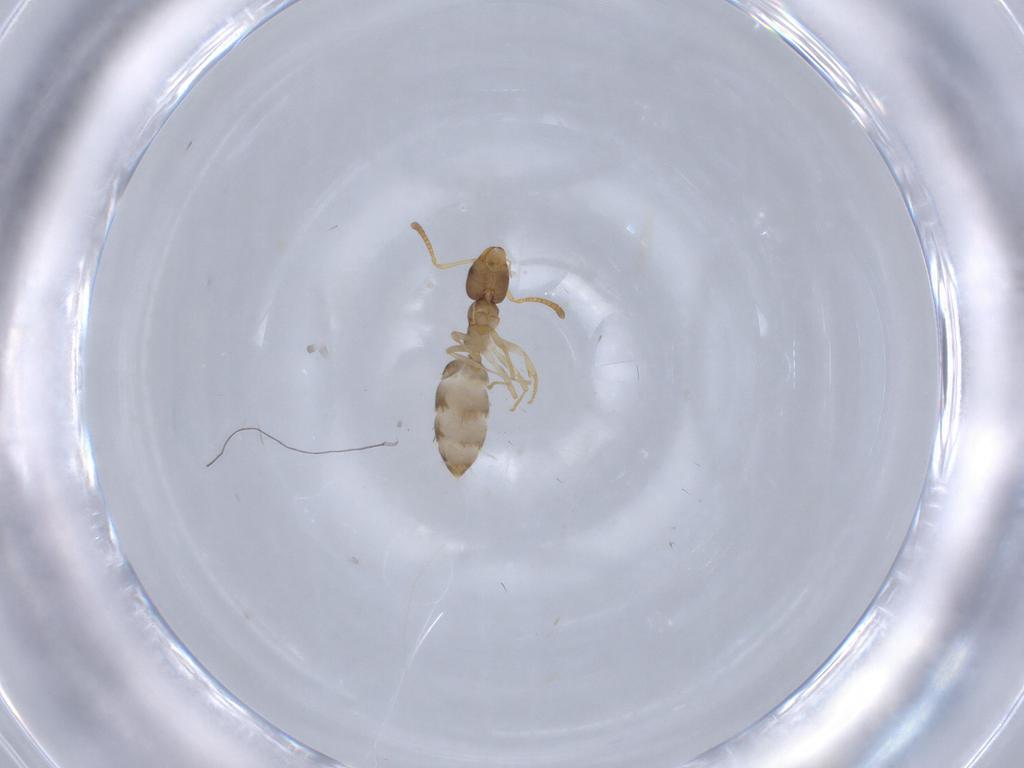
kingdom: Animalia
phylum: Arthropoda
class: Insecta
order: Hymenoptera
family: Formicidae
